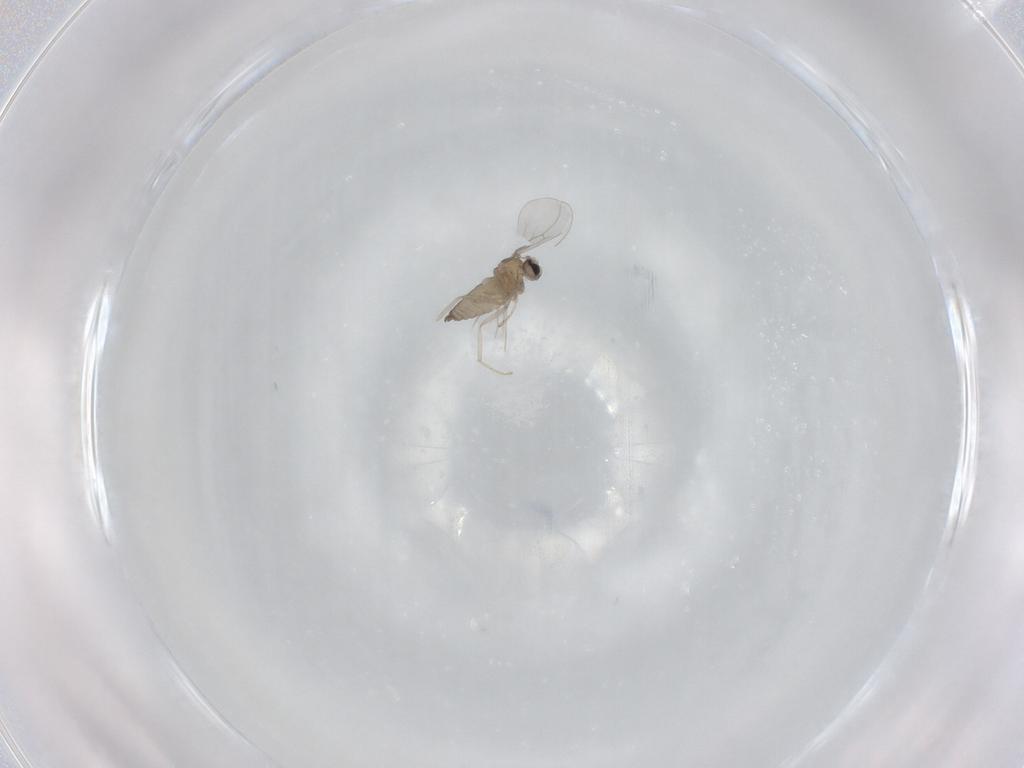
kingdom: Animalia
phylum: Arthropoda
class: Insecta
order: Diptera
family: Cecidomyiidae
